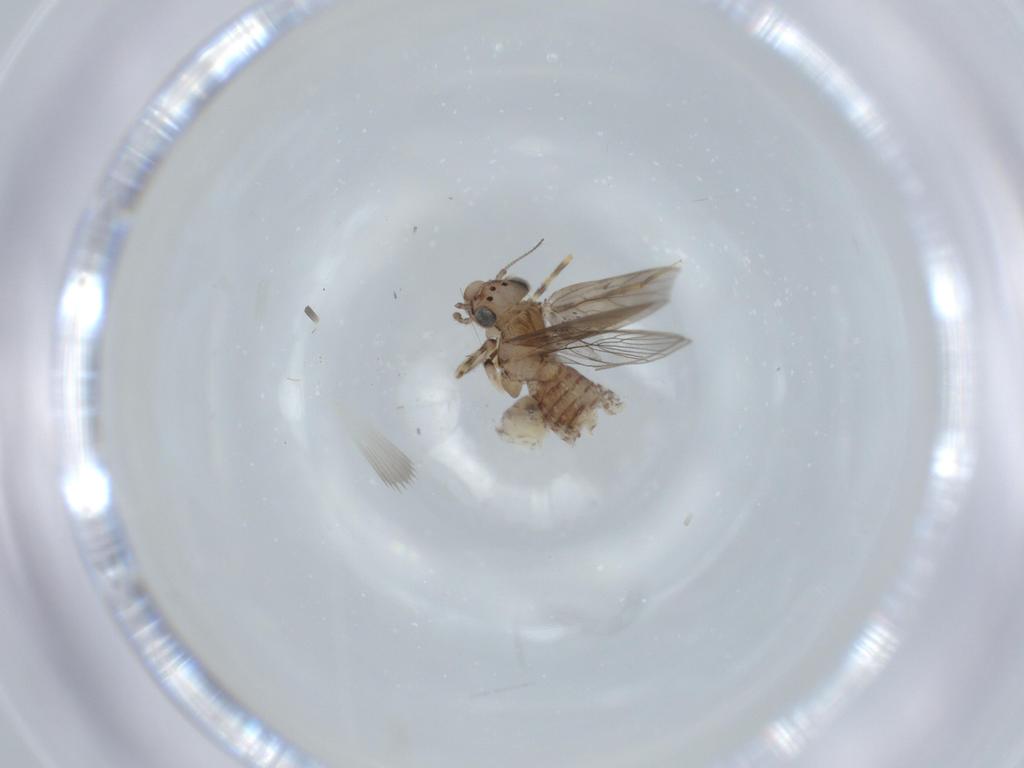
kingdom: Animalia
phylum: Arthropoda
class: Insecta
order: Psocodea
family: Lepidopsocidae
